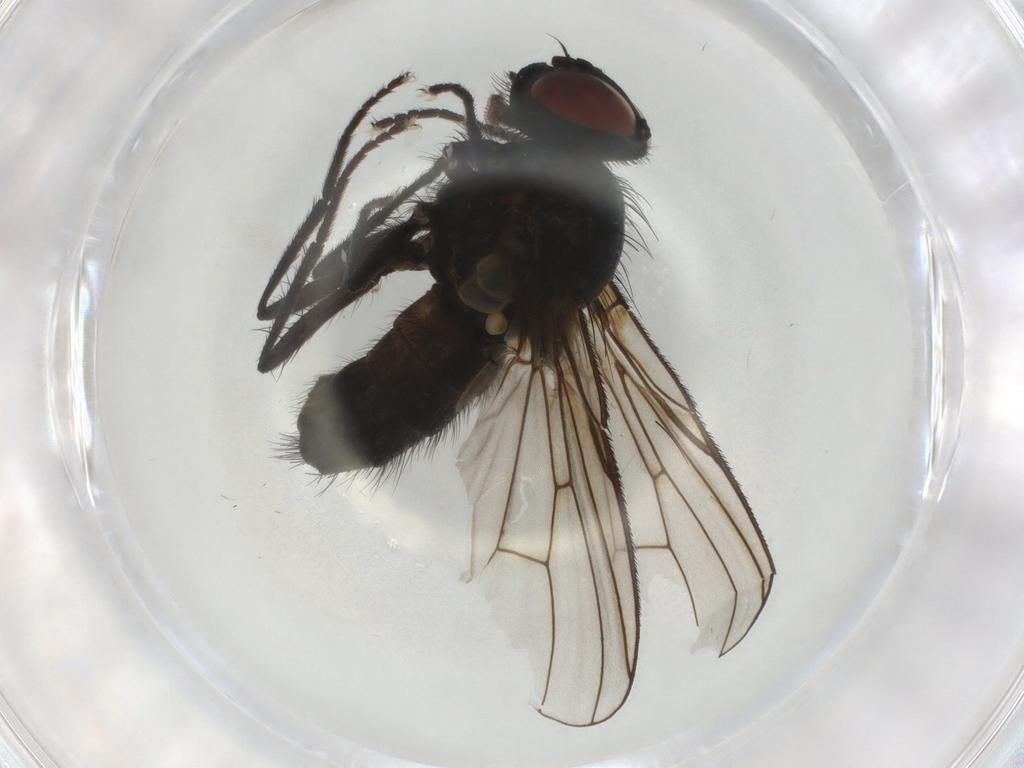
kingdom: Animalia
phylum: Arthropoda
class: Insecta
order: Diptera
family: Muscidae
